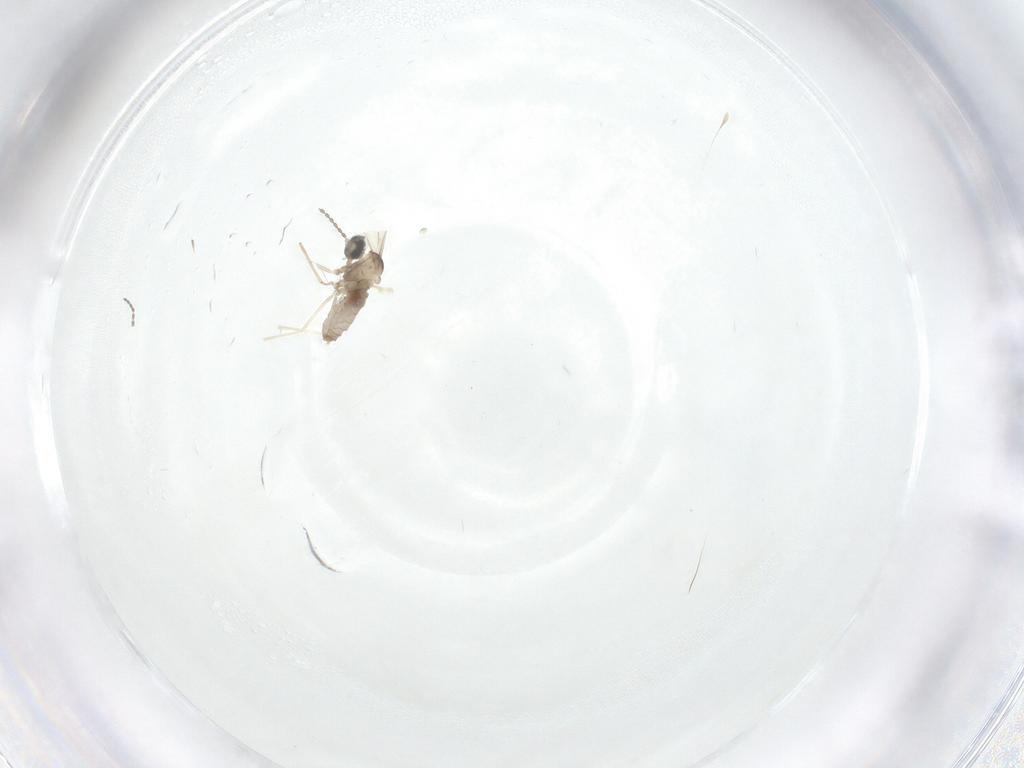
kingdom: Animalia
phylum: Arthropoda
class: Insecta
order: Diptera
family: Cecidomyiidae
